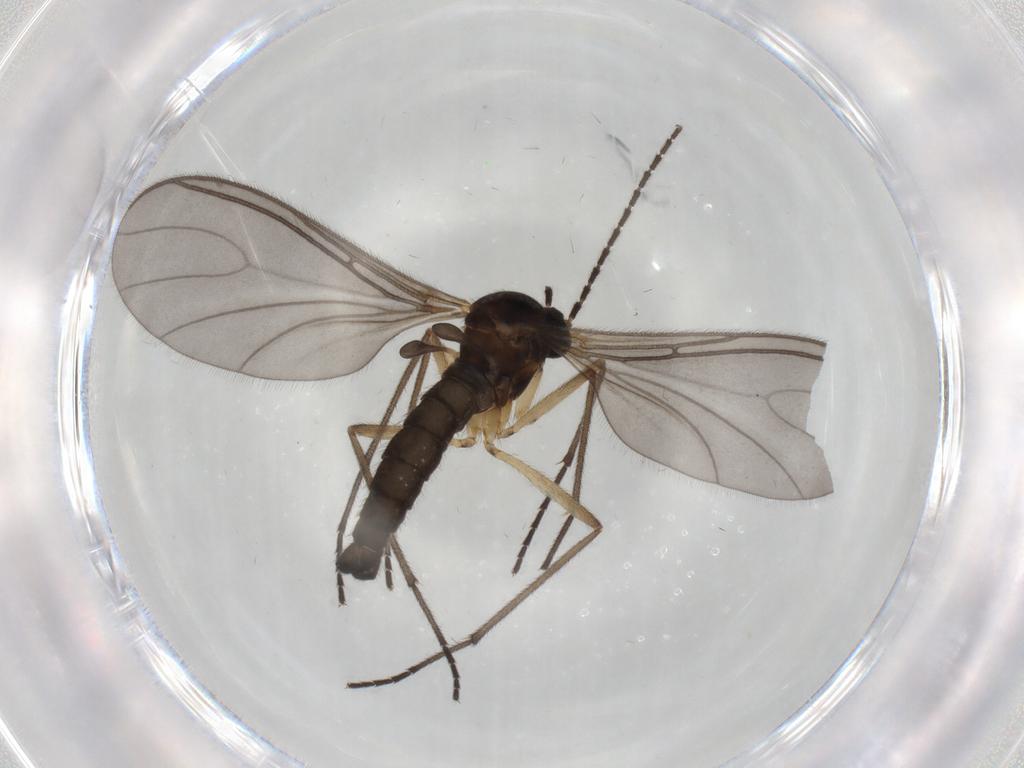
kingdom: Animalia
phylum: Arthropoda
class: Insecta
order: Diptera
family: Sciaridae
